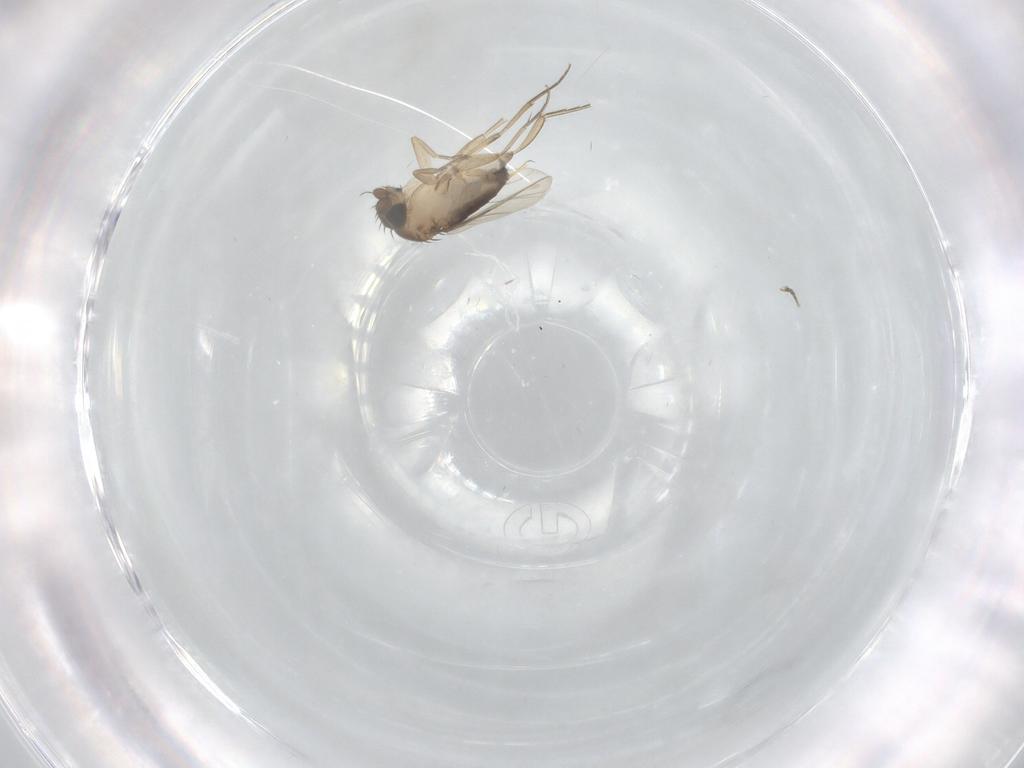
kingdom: Animalia
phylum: Arthropoda
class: Insecta
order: Diptera
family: Phoridae
